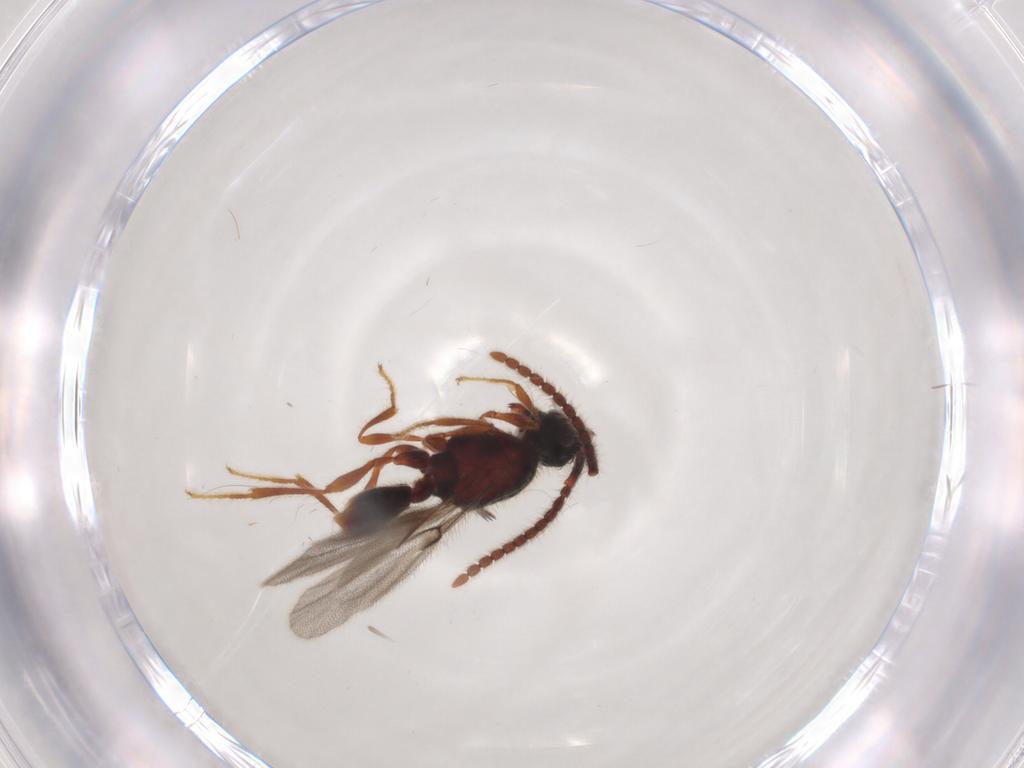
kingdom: Animalia
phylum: Arthropoda
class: Insecta
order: Hymenoptera
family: Diapriidae
